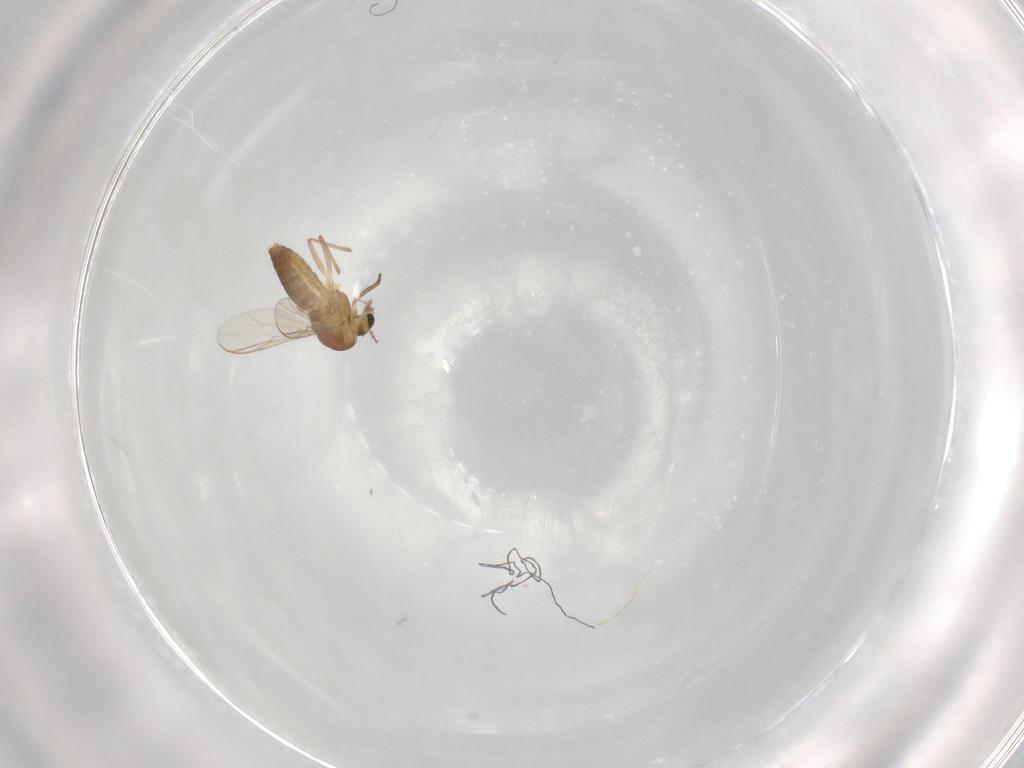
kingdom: Animalia
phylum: Arthropoda
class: Insecta
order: Diptera
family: Chironomidae
